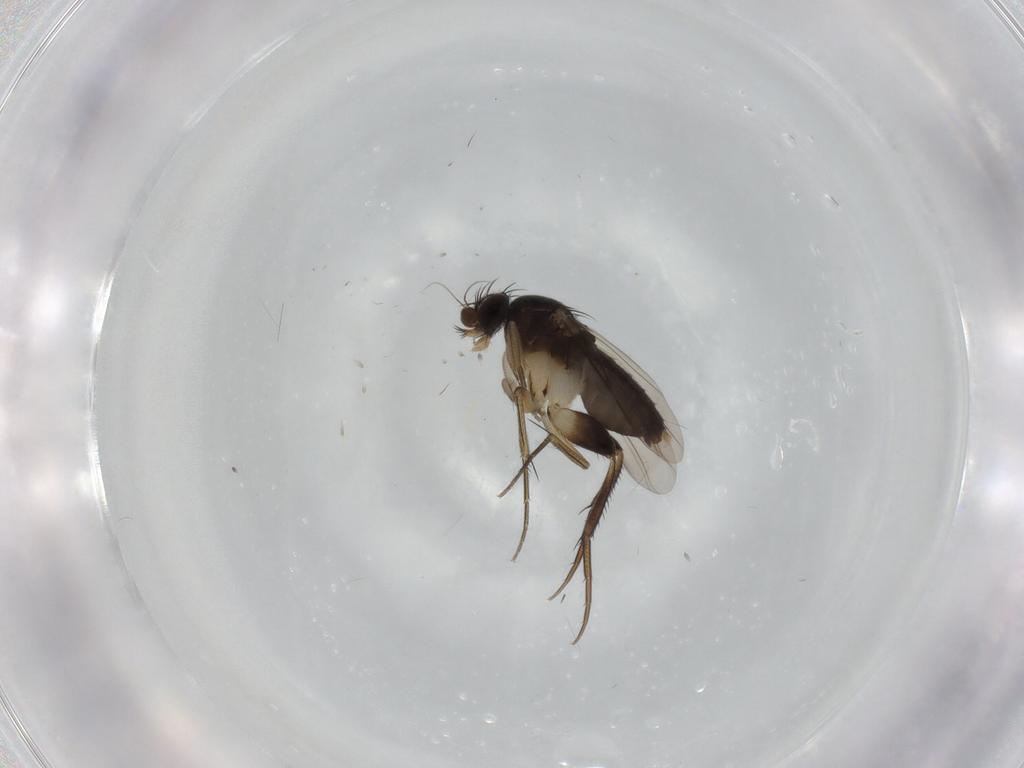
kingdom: Animalia
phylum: Arthropoda
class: Insecta
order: Diptera
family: Phoridae
